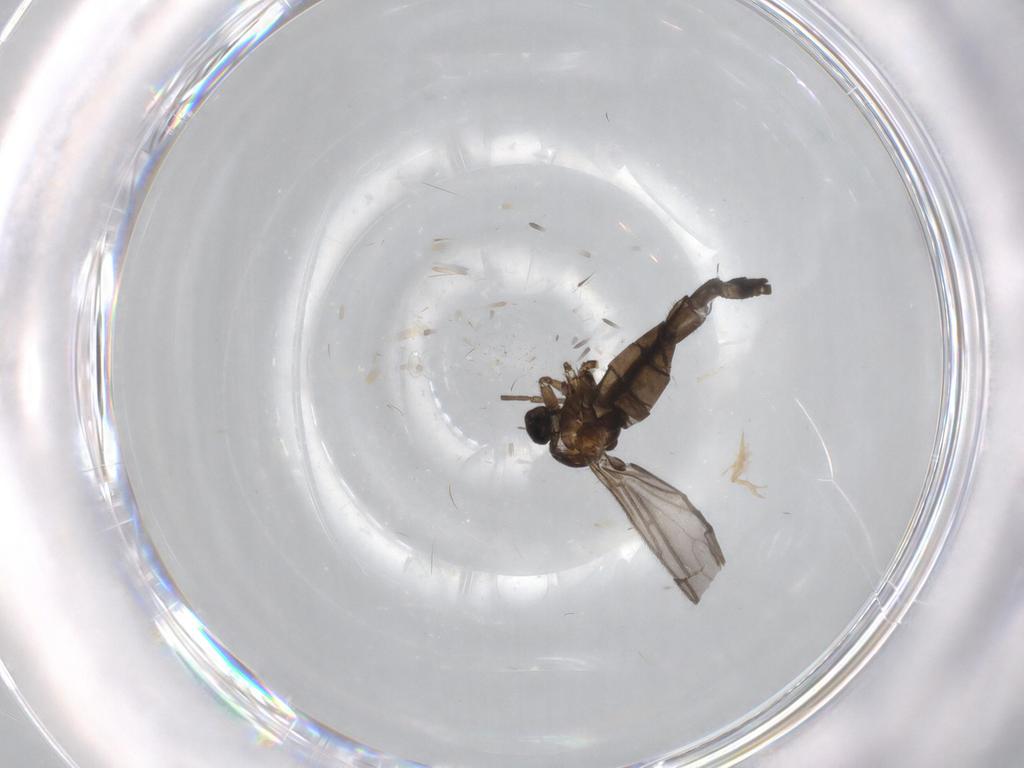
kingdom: Animalia
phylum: Arthropoda
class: Insecta
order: Diptera
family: Sciaridae
